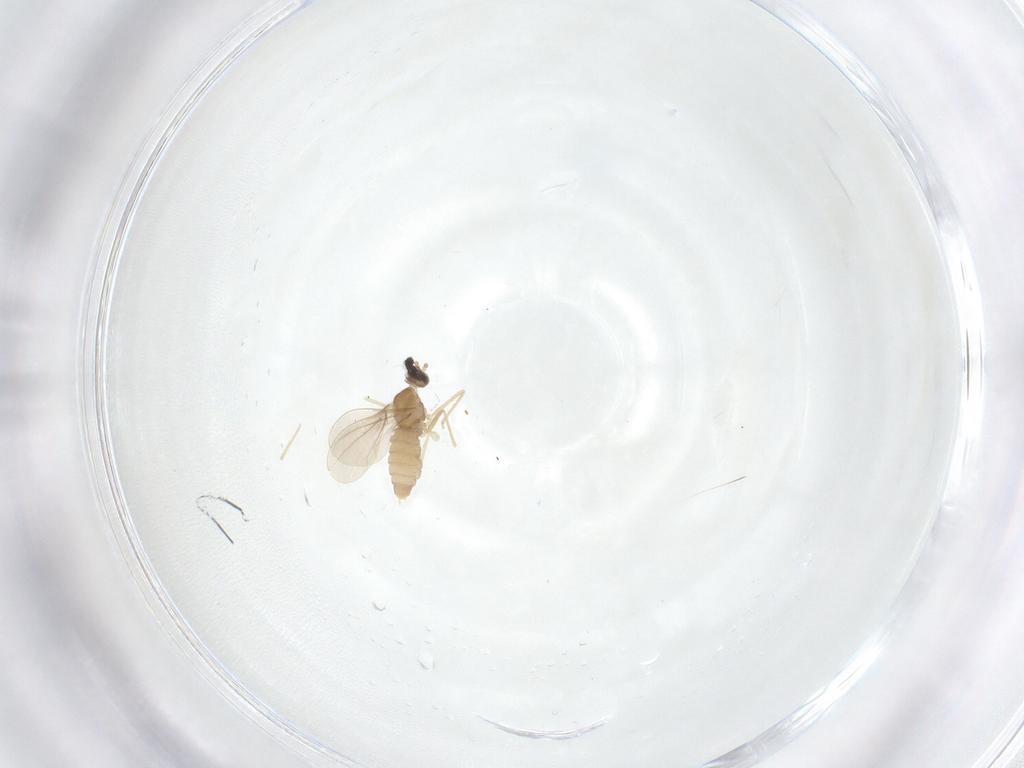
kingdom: Animalia
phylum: Arthropoda
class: Insecta
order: Diptera
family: Cecidomyiidae
